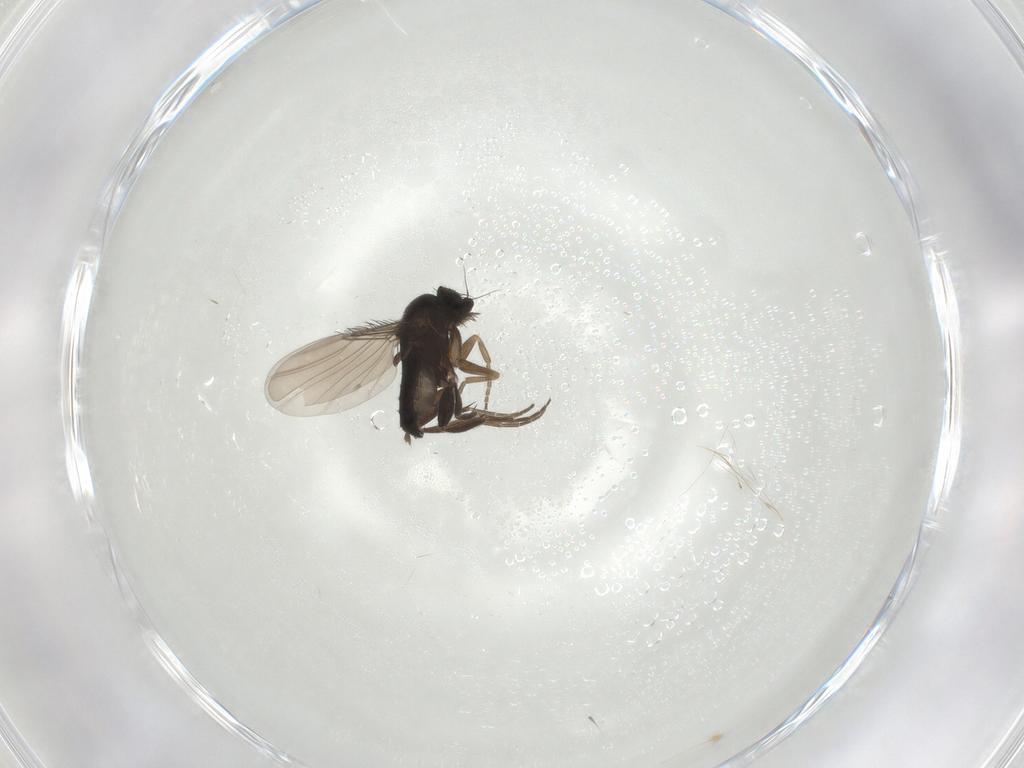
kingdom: Animalia
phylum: Arthropoda
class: Insecta
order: Diptera
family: Phoridae
